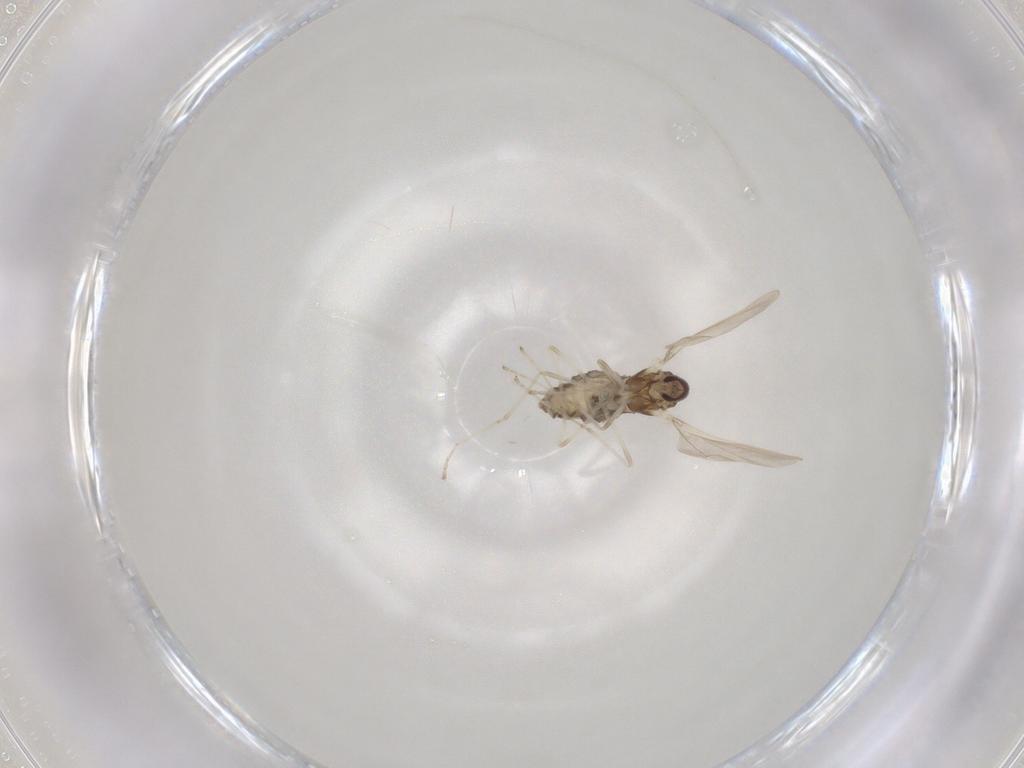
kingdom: Animalia
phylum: Arthropoda
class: Insecta
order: Diptera
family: Cecidomyiidae
